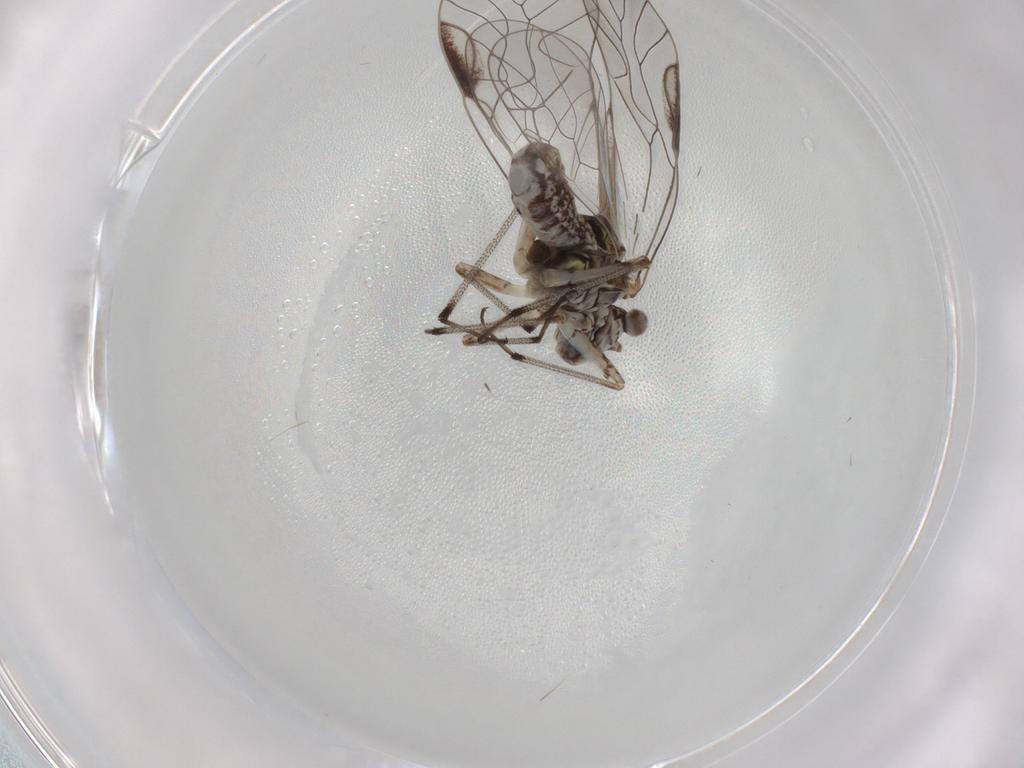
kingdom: Animalia
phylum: Arthropoda
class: Insecta
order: Psocodea
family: Psocidae
